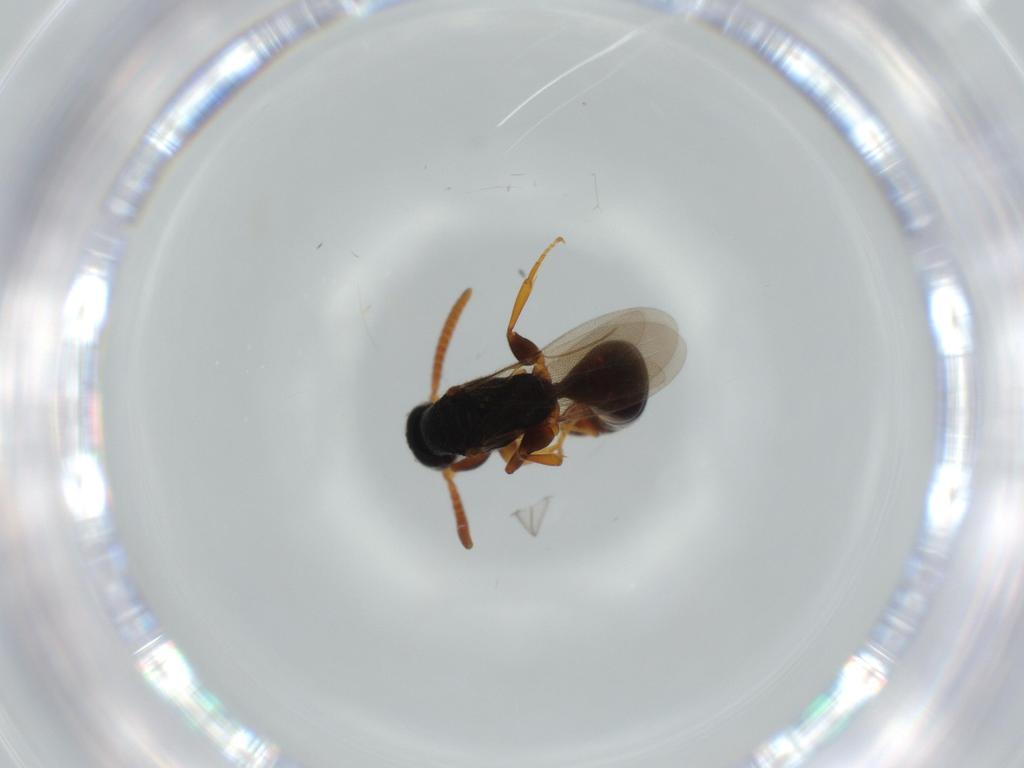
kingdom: Animalia
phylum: Arthropoda
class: Insecta
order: Hymenoptera
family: Bethylidae
